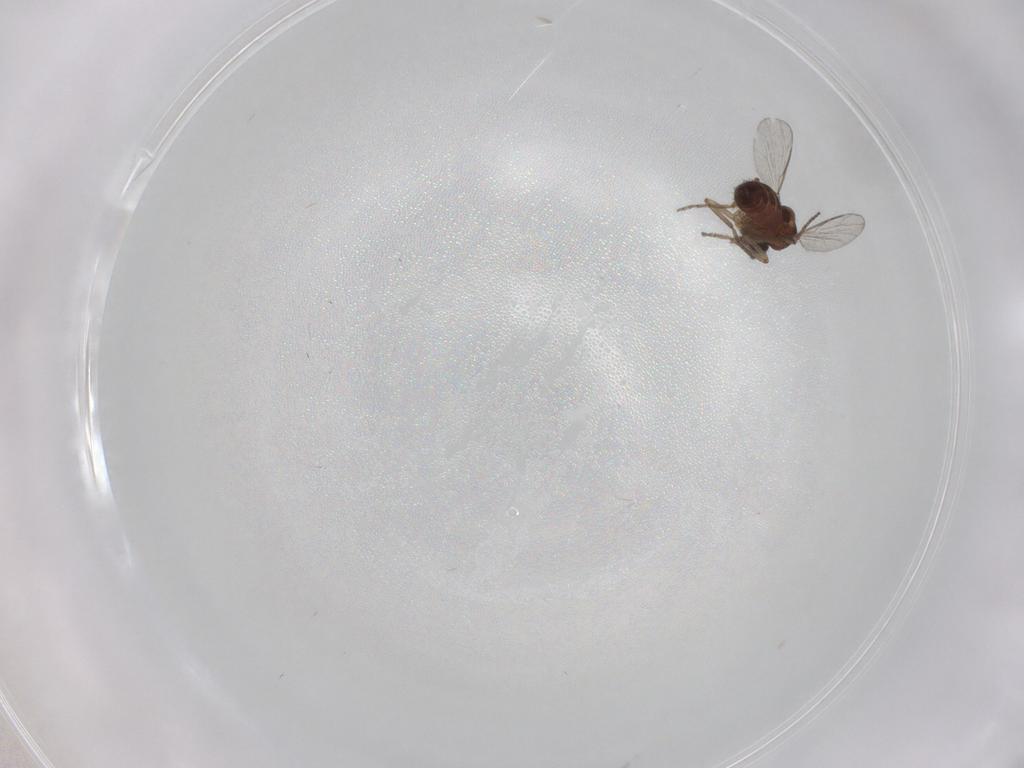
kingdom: Animalia
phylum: Arthropoda
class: Insecta
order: Diptera
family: Ceratopogonidae
